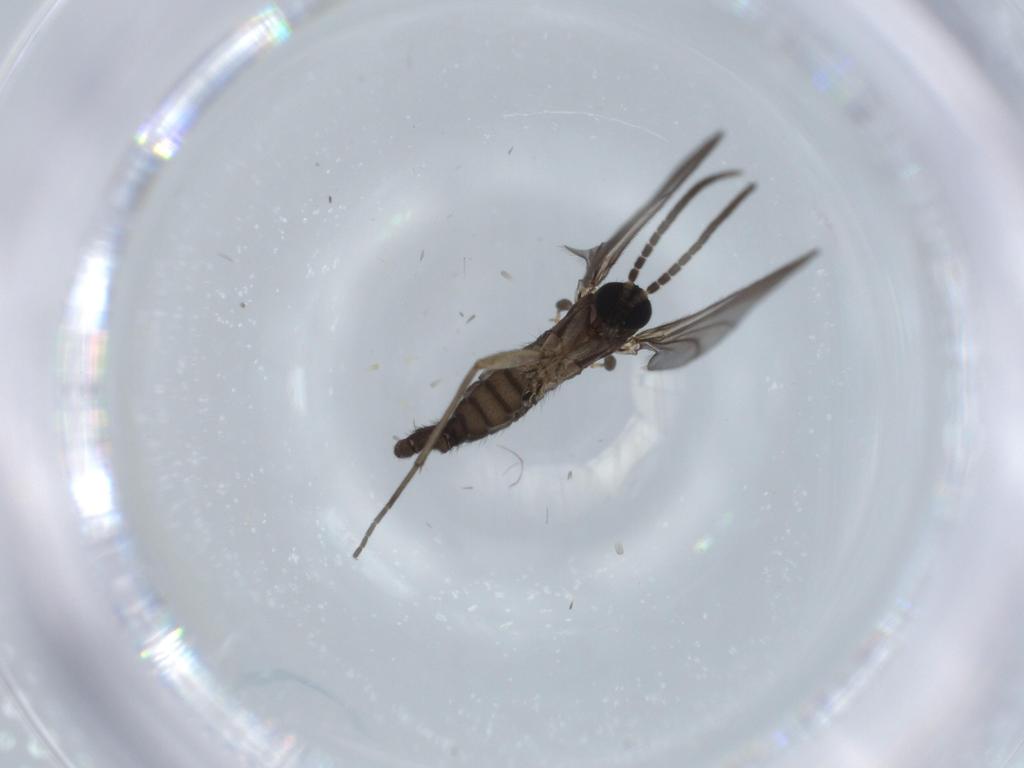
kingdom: Animalia
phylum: Arthropoda
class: Insecta
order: Diptera
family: Sciaridae
